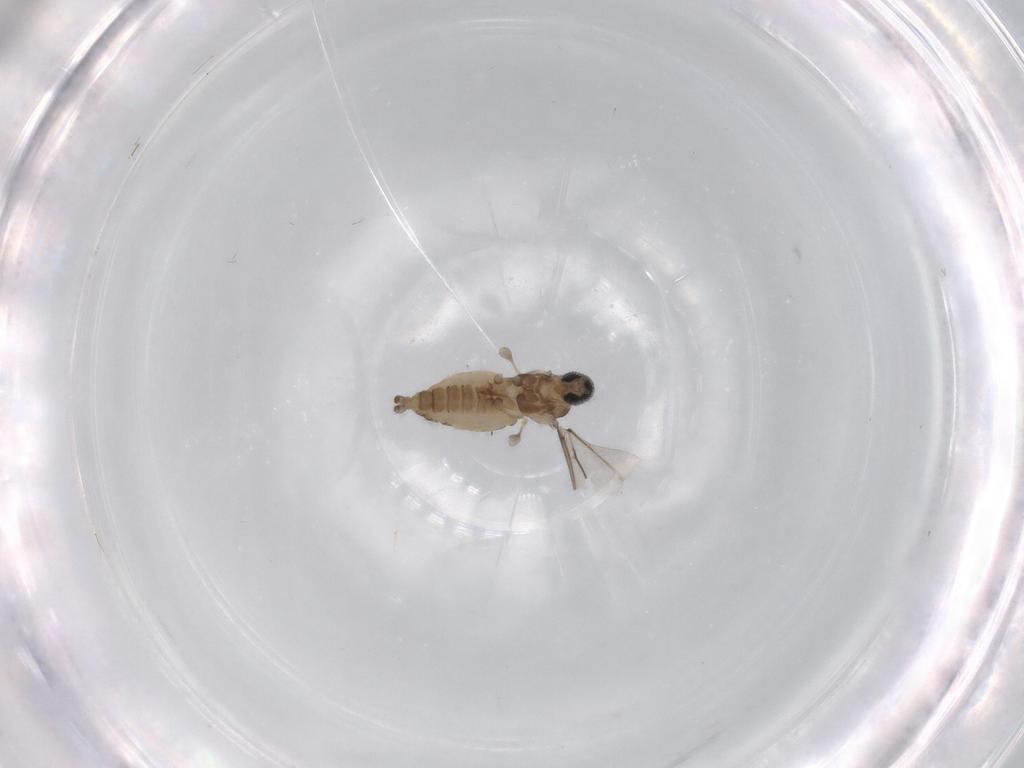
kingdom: Animalia
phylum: Arthropoda
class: Insecta
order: Diptera
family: Cecidomyiidae
